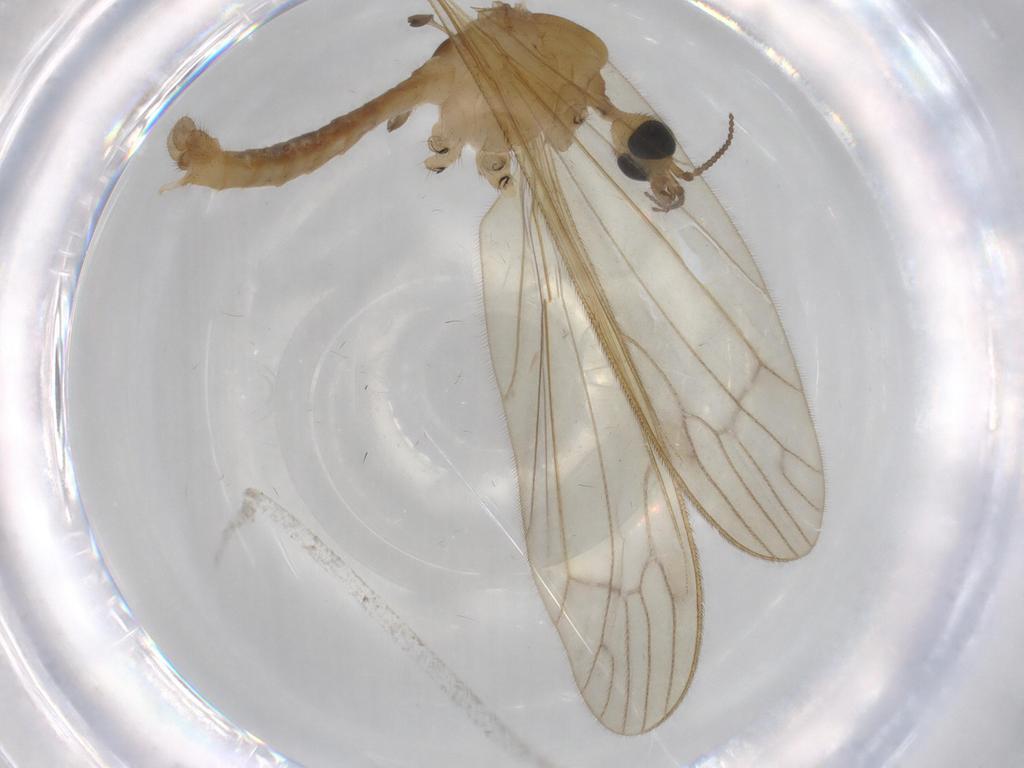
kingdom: Animalia
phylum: Arthropoda
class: Insecta
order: Diptera
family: Limoniidae
